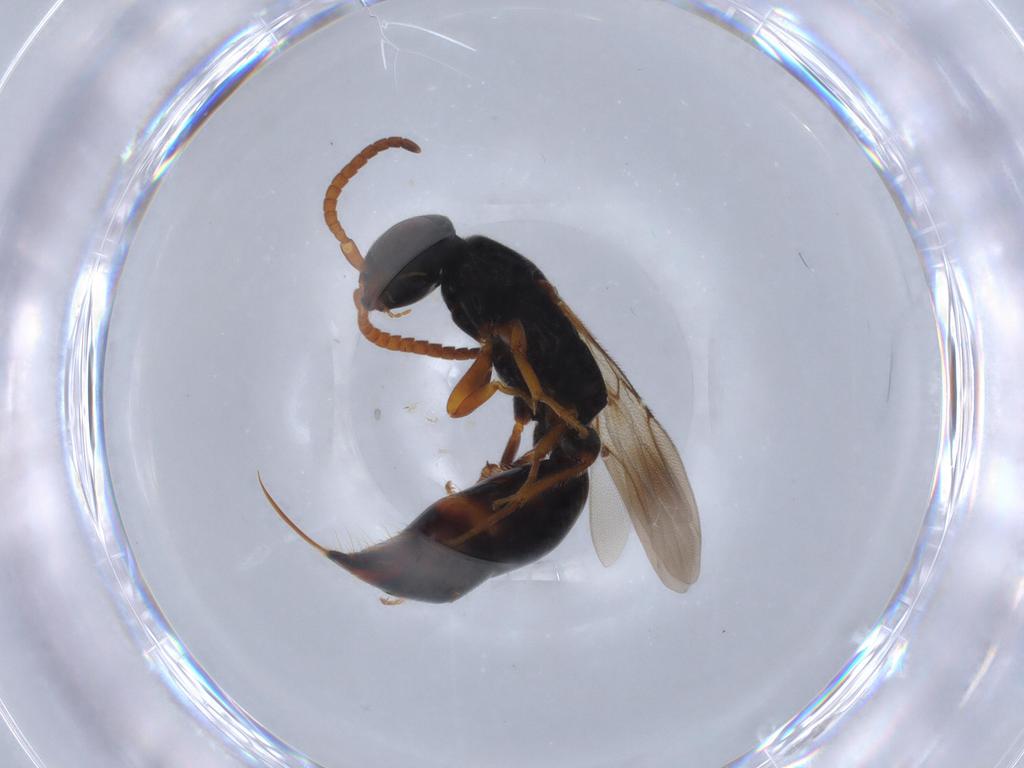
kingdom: Animalia
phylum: Arthropoda
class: Insecta
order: Hymenoptera
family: Bethylidae
